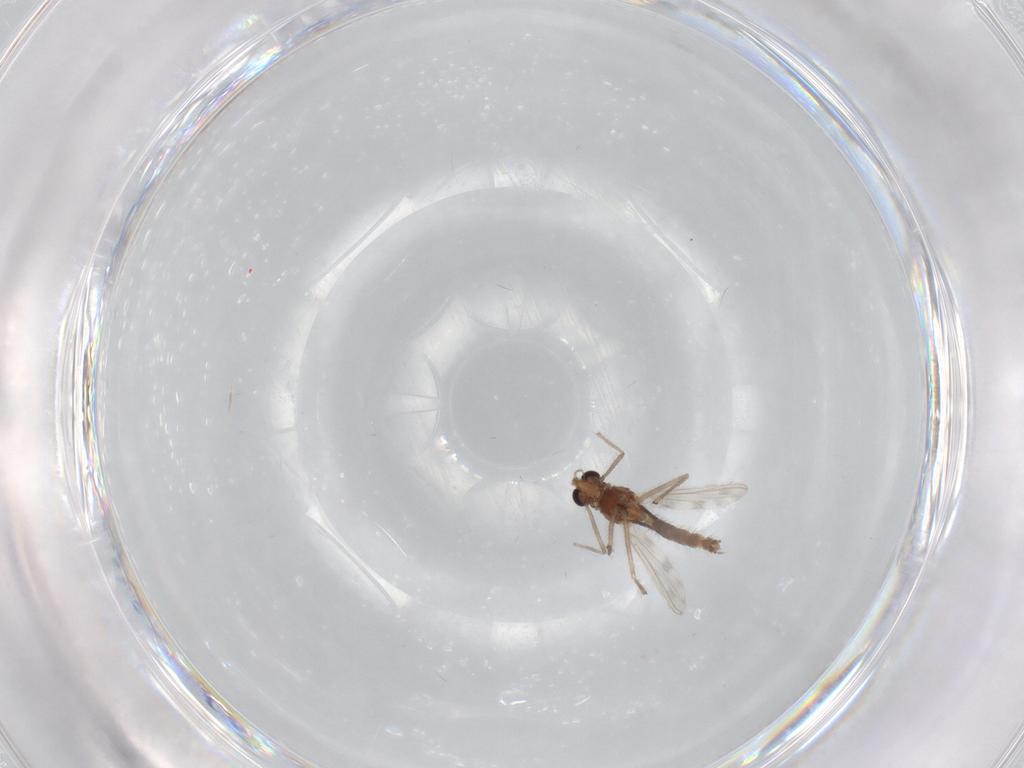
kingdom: Animalia
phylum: Arthropoda
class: Insecta
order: Diptera
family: Chironomidae
